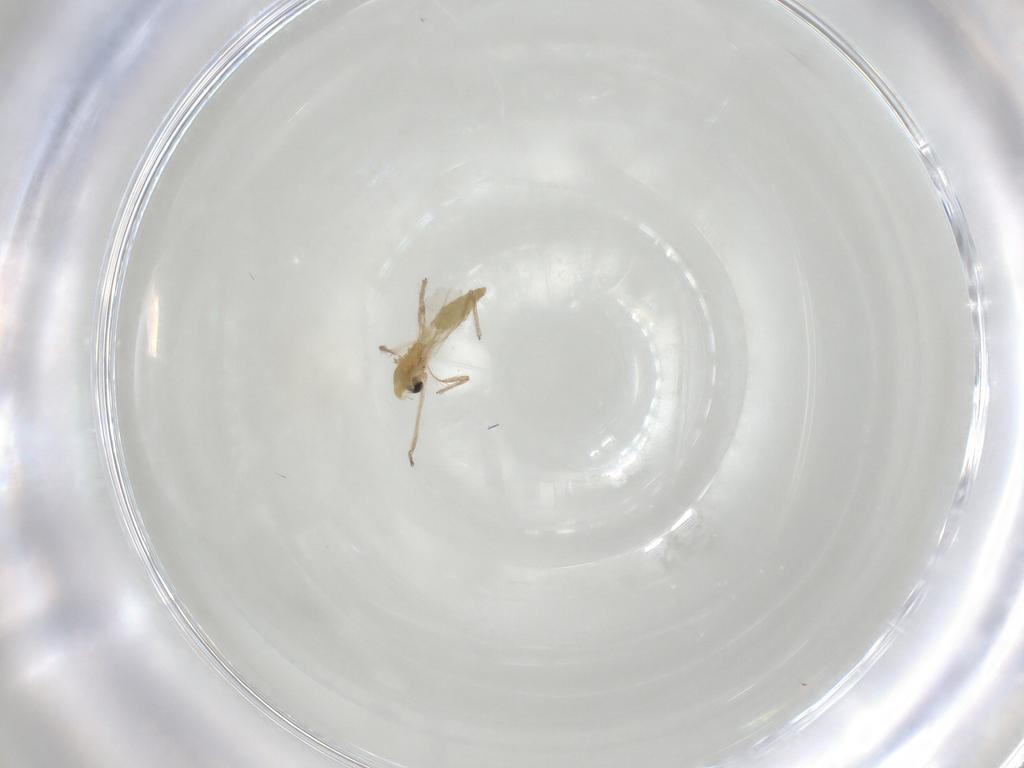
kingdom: Animalia
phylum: Arthropoda
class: Insecta
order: Diptera
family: Chironomidae
